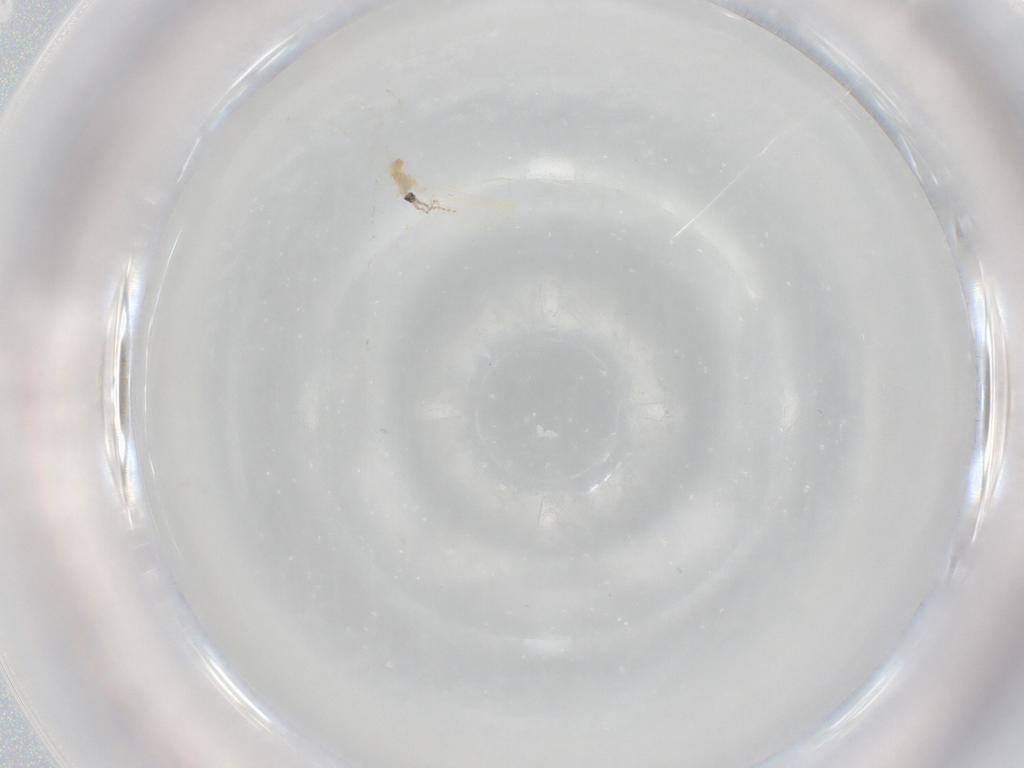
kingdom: Animalia
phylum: Arthropoda
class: Insecta
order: Diptera
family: Cecidomyiidae
